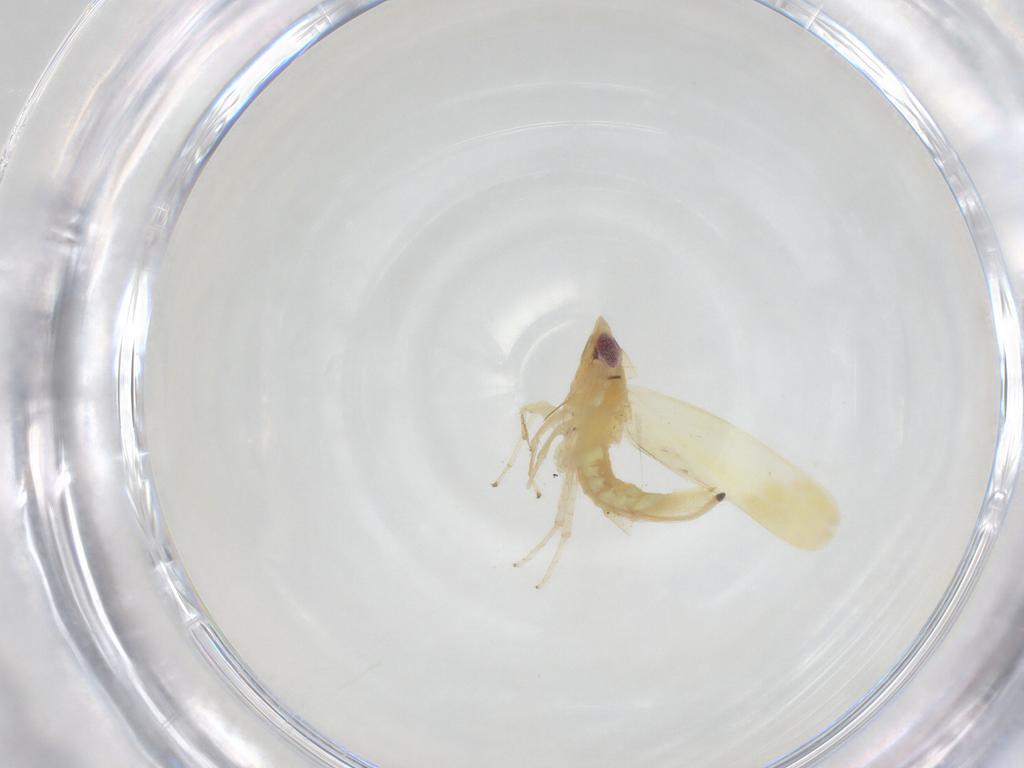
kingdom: Animalia
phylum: Arthropoda
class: Insecta
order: Hemiptera
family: Cicadellidae
